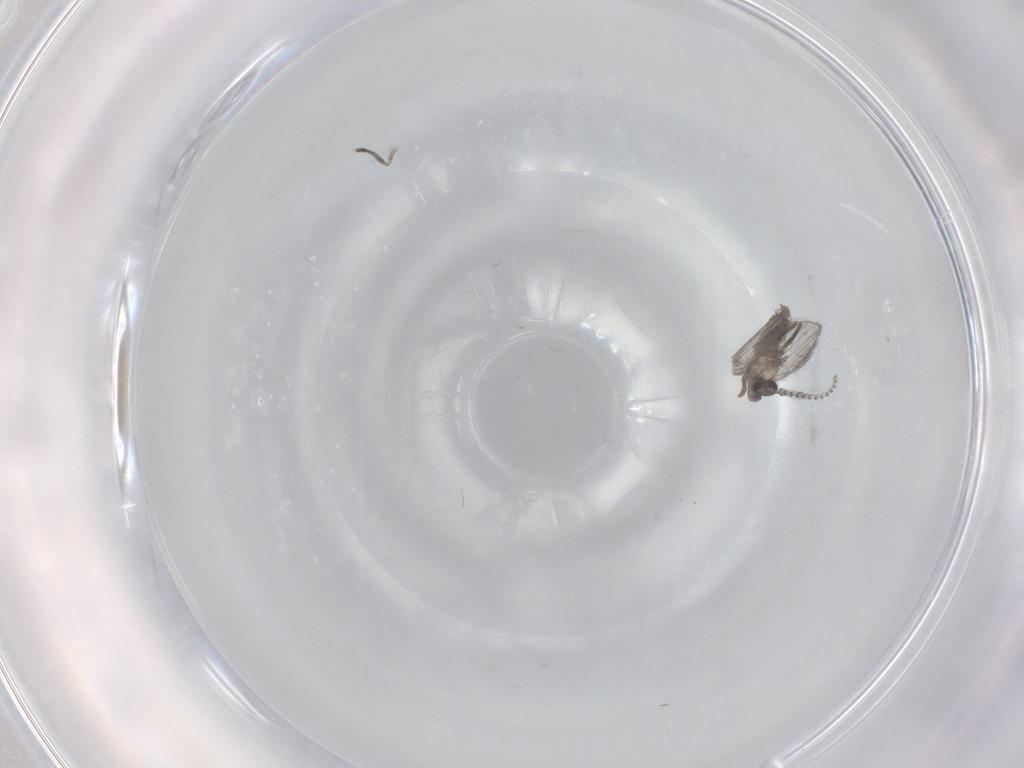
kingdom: Animalia
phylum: Arthropoda
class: Insecta
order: Diptera
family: Psychodidae
